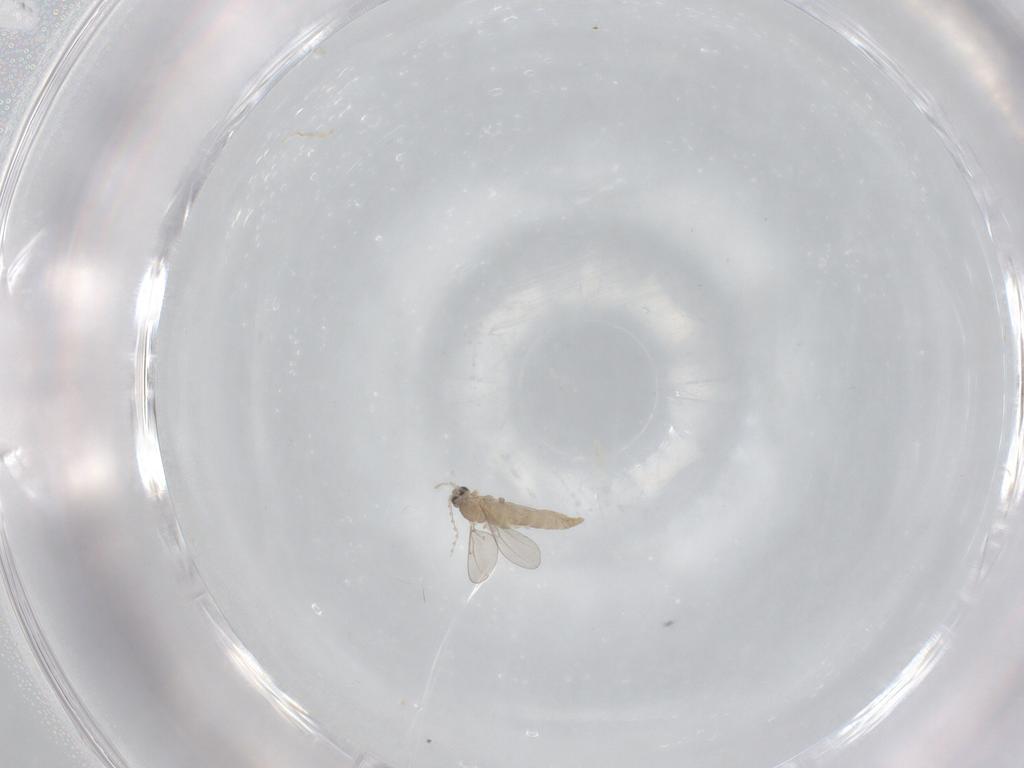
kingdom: Animalia
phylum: Arthropoda
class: Insecta
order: Diptera
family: Cecidomyiidae
